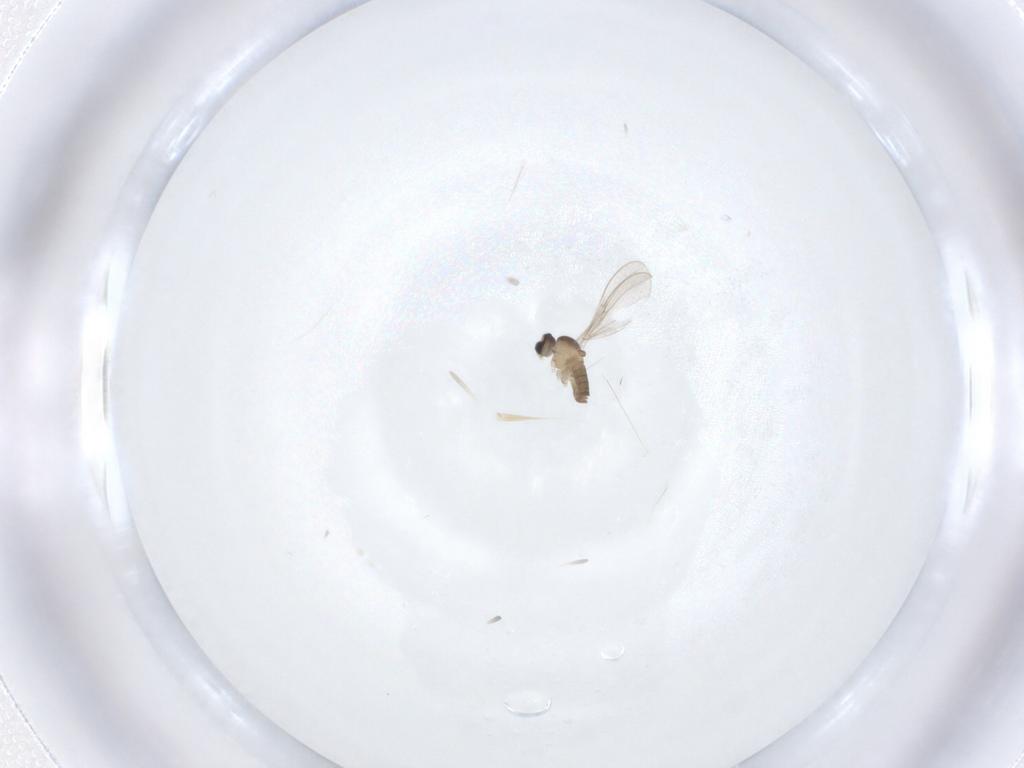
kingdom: Animalia
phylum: Arthropoda
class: Insecta
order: Diptera
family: Cecidomyiidae
